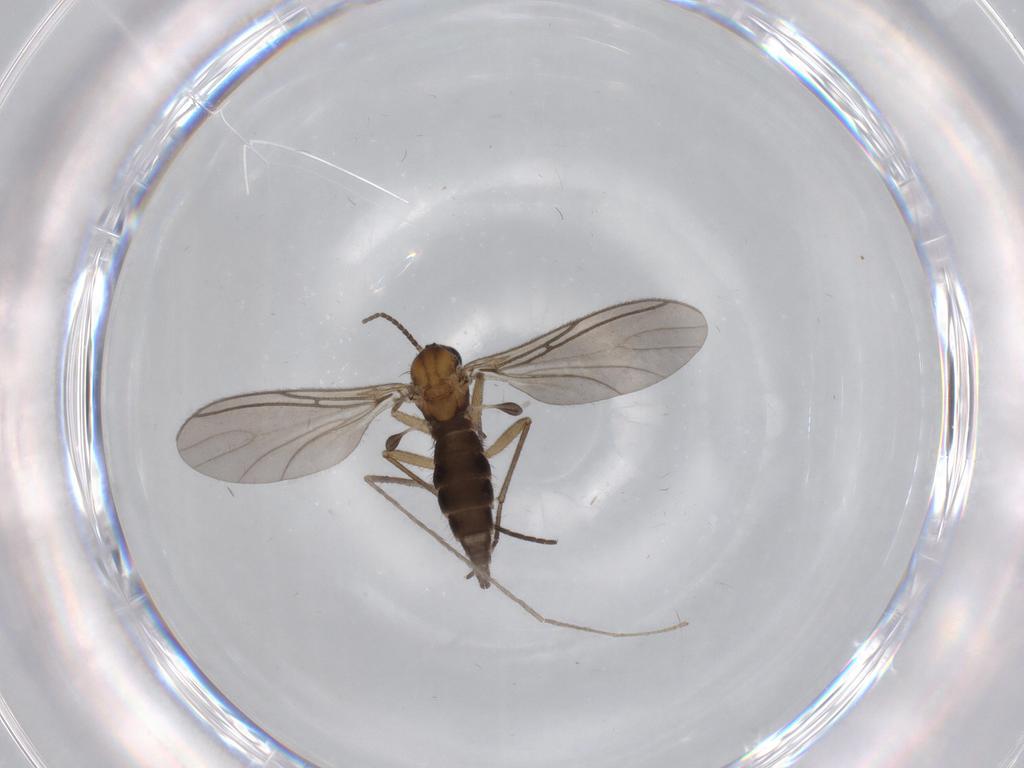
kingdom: Animalia
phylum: Arthropoda
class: Insecta
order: Diptera
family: Limoniidae
